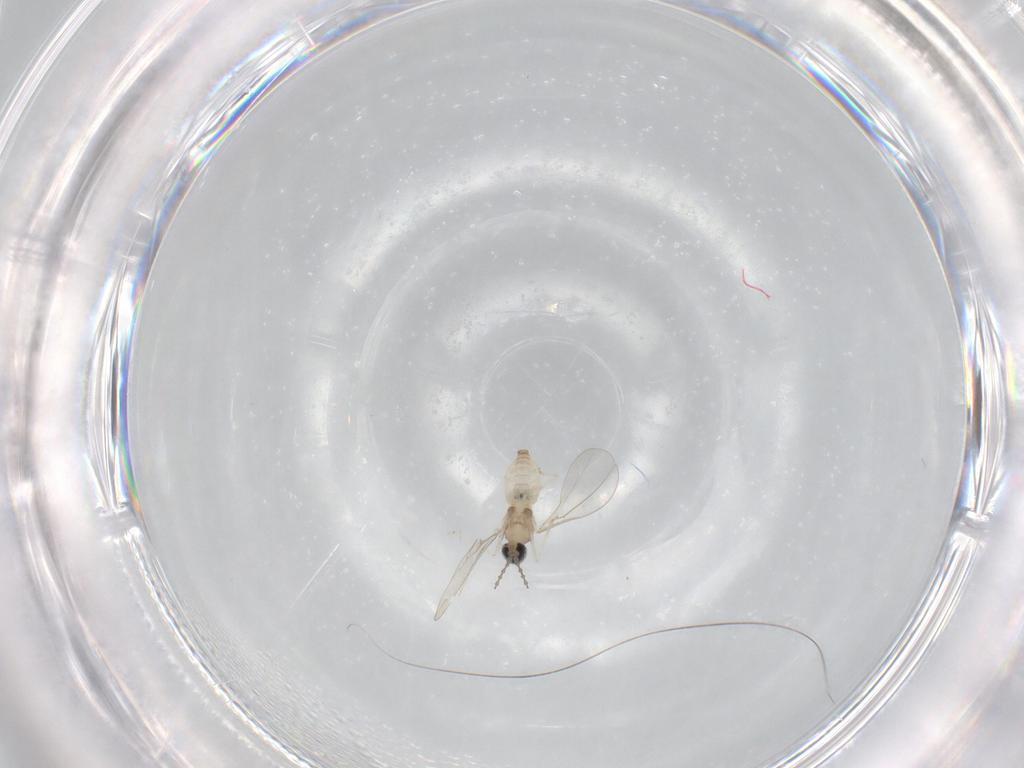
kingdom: Animalia
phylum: Arthropoda
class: Insecta
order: Diptera
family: Cecidomyiidae
